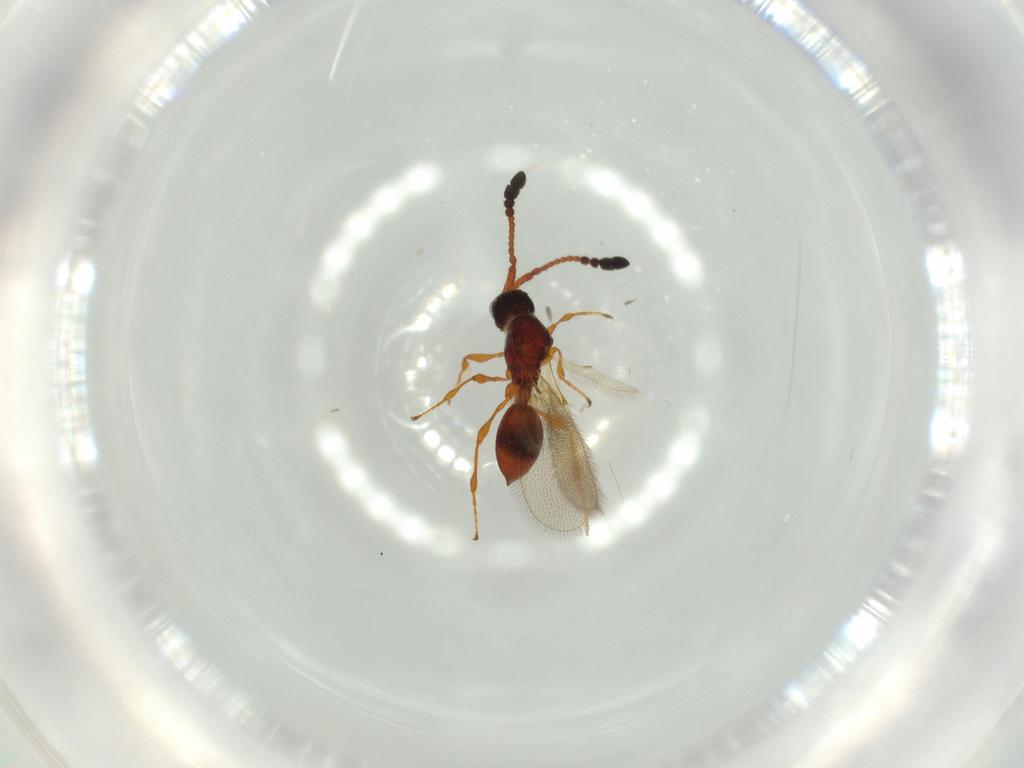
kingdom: Animalia
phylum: Arthropoda
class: Insecta
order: Hymenoptera
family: Diapriidae
